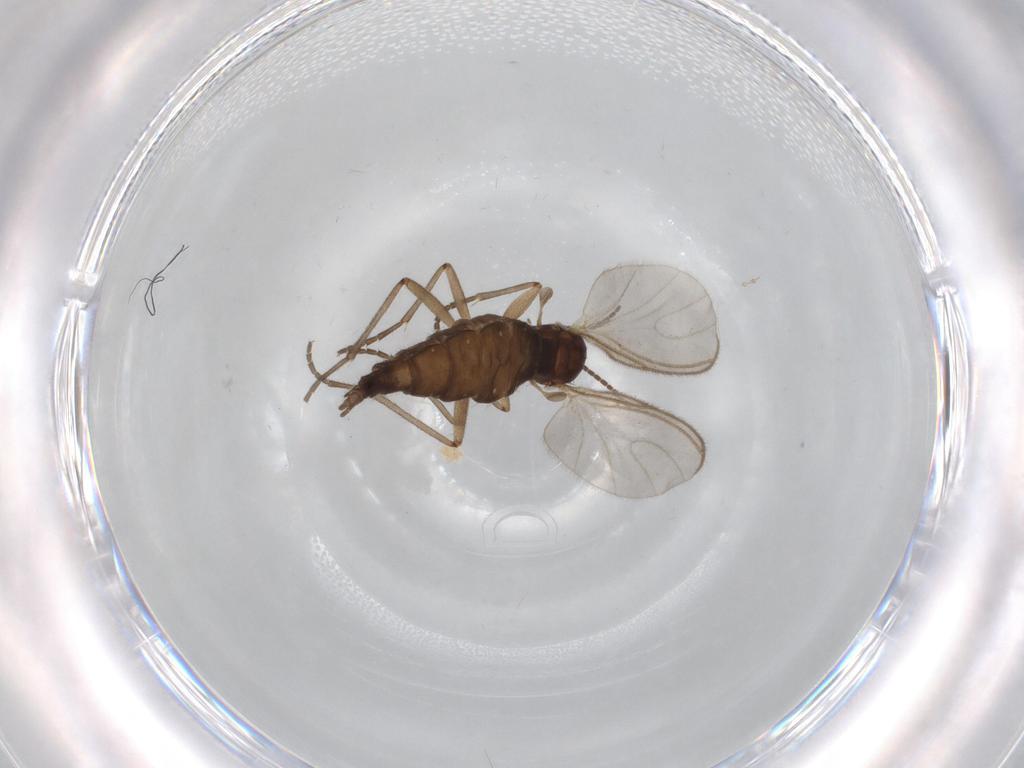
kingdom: Animalia
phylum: Arthropoda
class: Insecta
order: Diptera
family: Sciaridae
